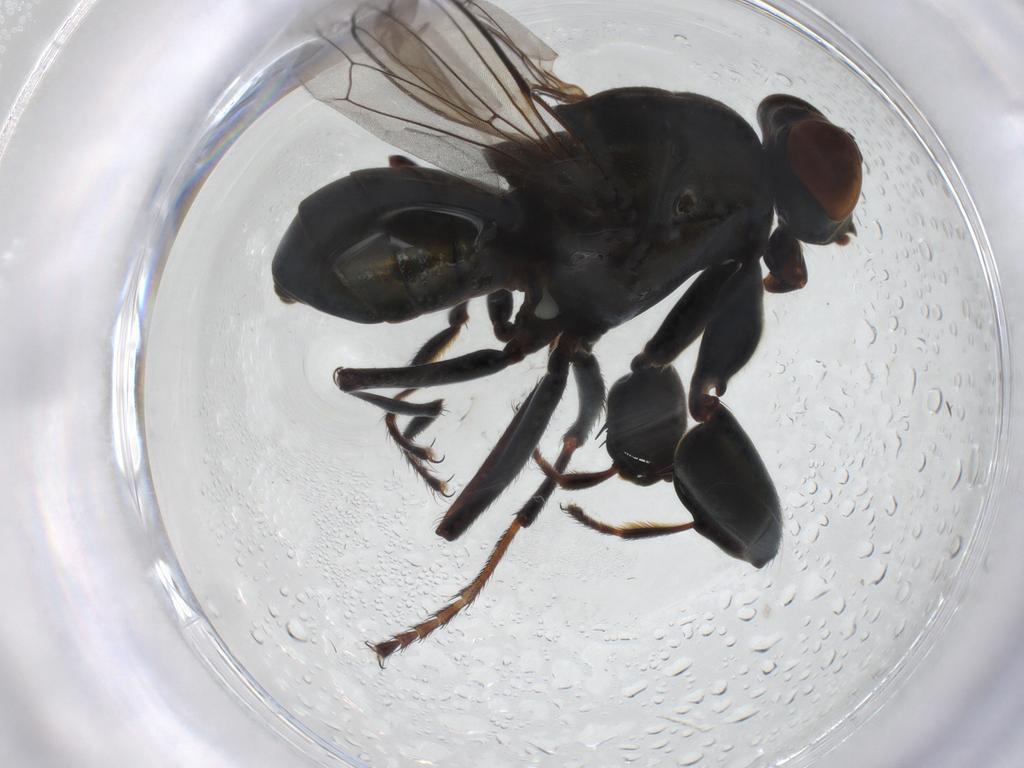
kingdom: Animalia
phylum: Arthropoda
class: Insecta
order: Diptera
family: Ephydridae
